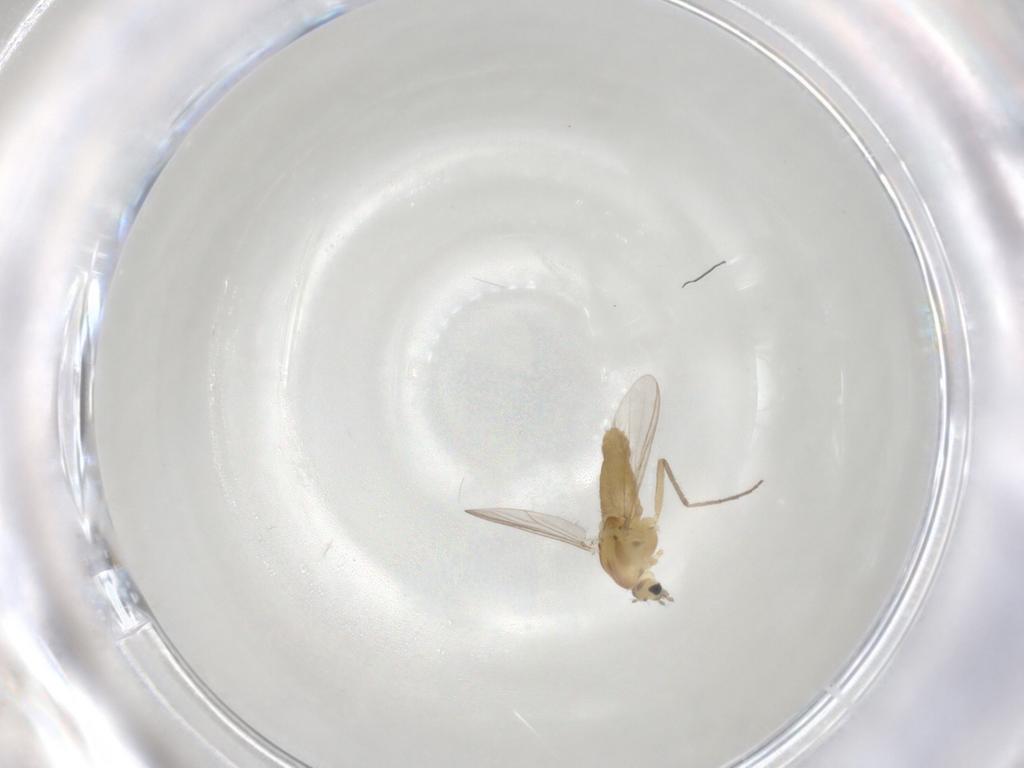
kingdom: Animalia
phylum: Arthropoda
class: Insecta
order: Diptera
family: Chironomidae
